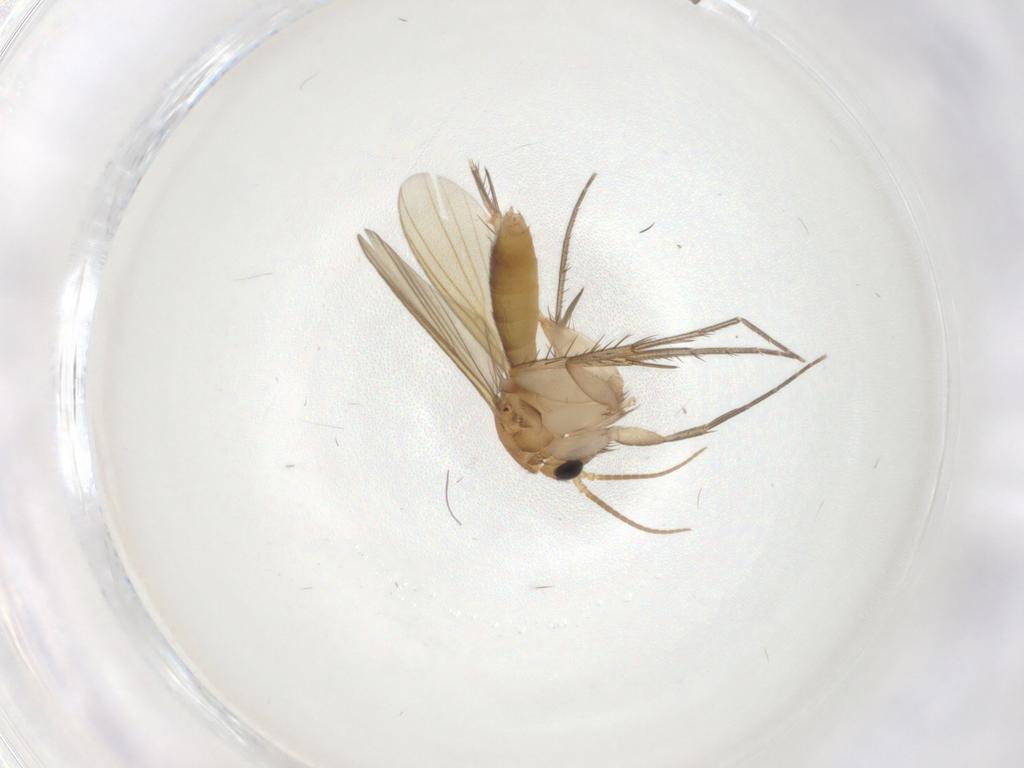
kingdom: Animalia
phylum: Arthropoda
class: Insecta
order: Diptera
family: Mycetophilidae
